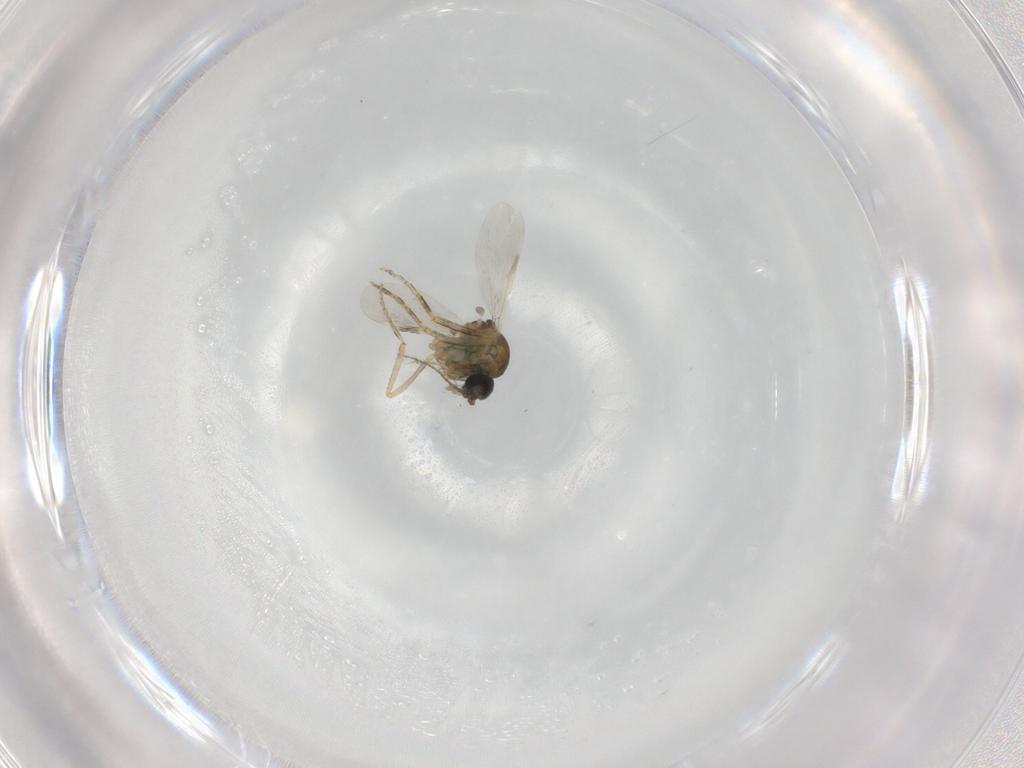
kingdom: Animalia
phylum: Arthropoda
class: Insecta
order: Diptera
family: Ceratopogonidae
